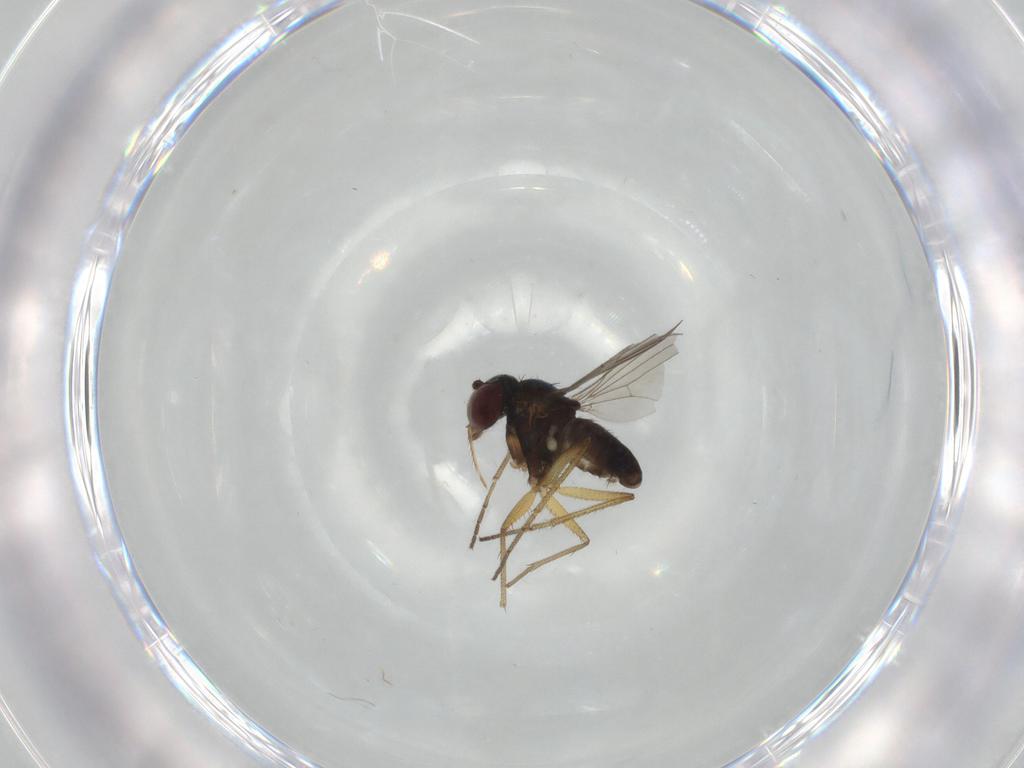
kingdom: Animalia
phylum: Arthropoda
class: Insecta
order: Diptera
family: Dolichopodidae
